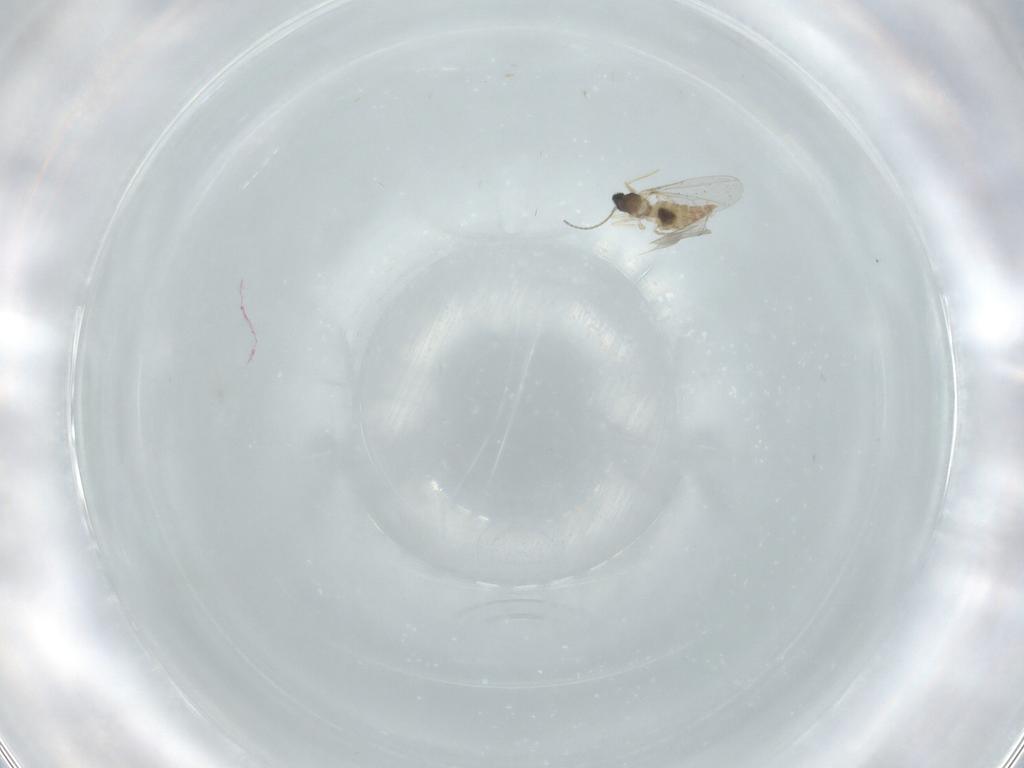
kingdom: Animalia
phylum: Arthropoda
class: Insecta
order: Diptera
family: Cecidomyiidae
